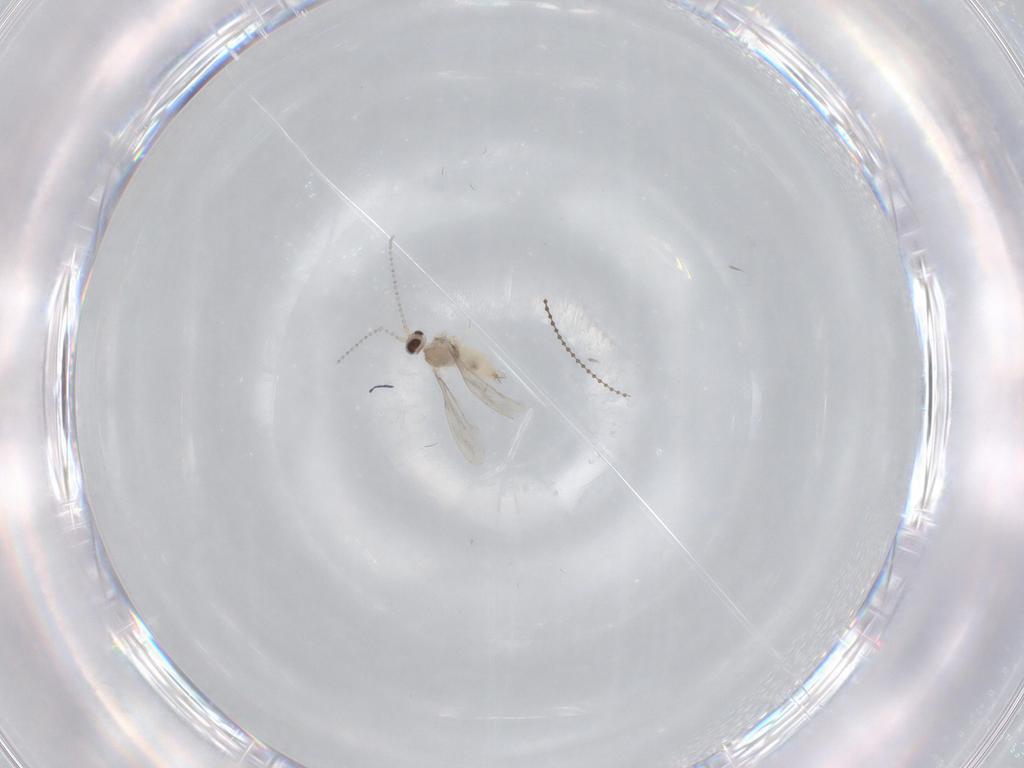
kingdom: Animalia
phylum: Arthropoda
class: Insecta
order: Diptera
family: Cecidomyiidae
